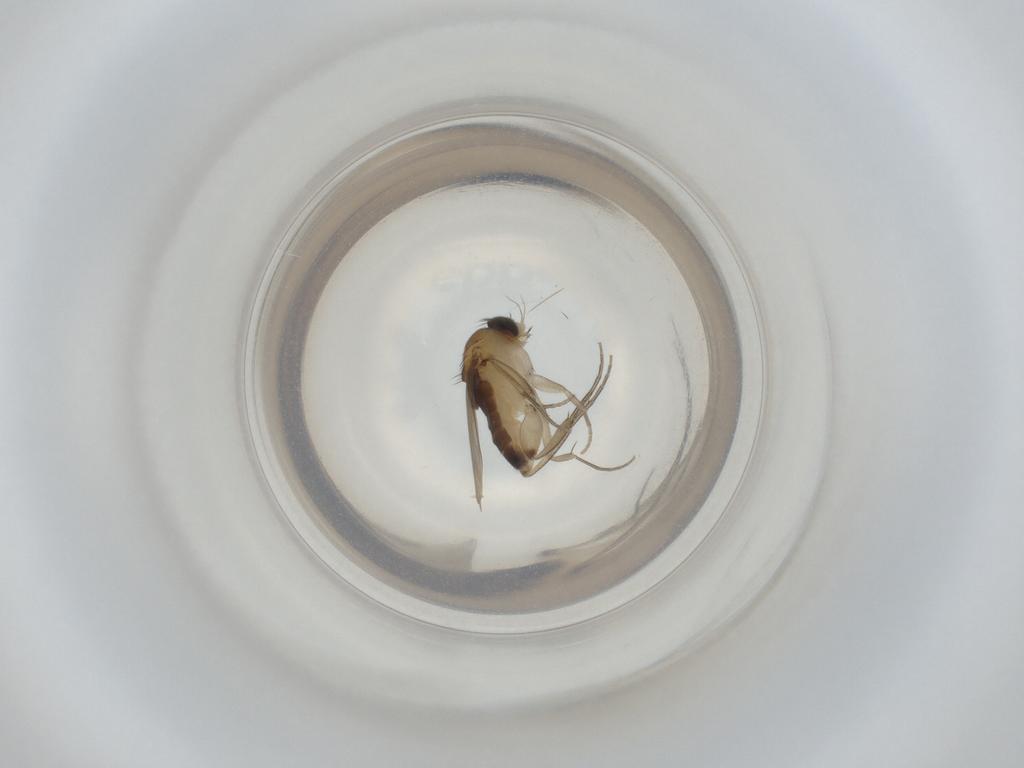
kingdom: Animalia
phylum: Arthropoda
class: Insecta
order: Diptera
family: Phoridae
